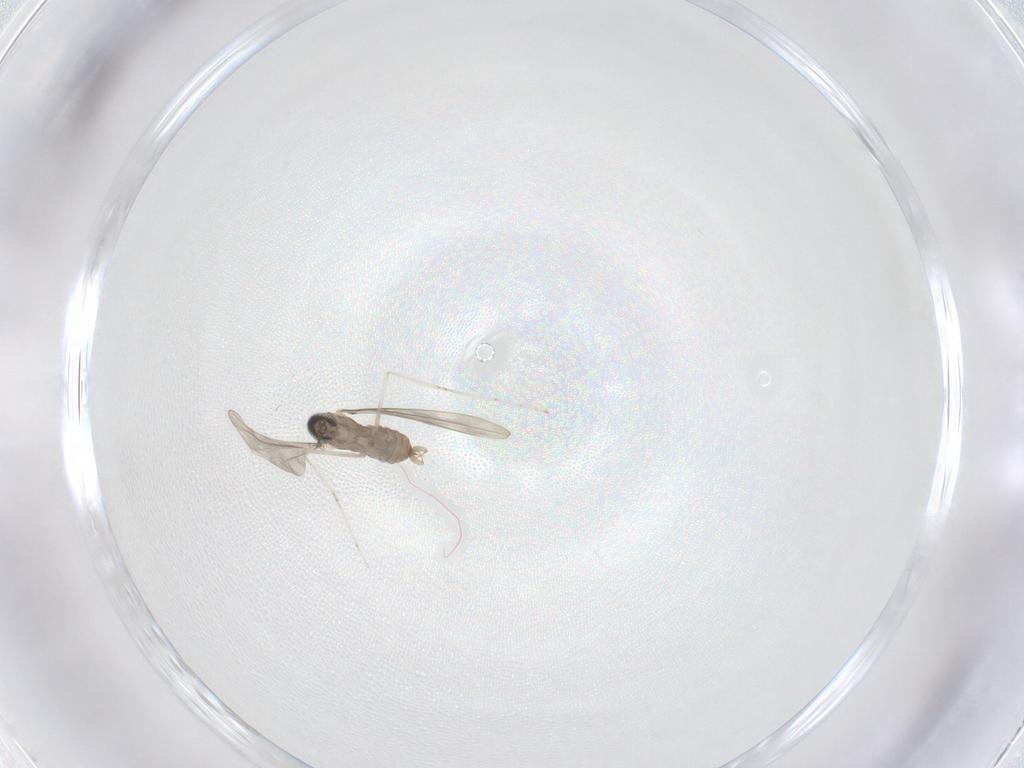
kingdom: Animalia
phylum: Arthropoda
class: Insecta
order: Diptera
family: Cecidomyiidae
